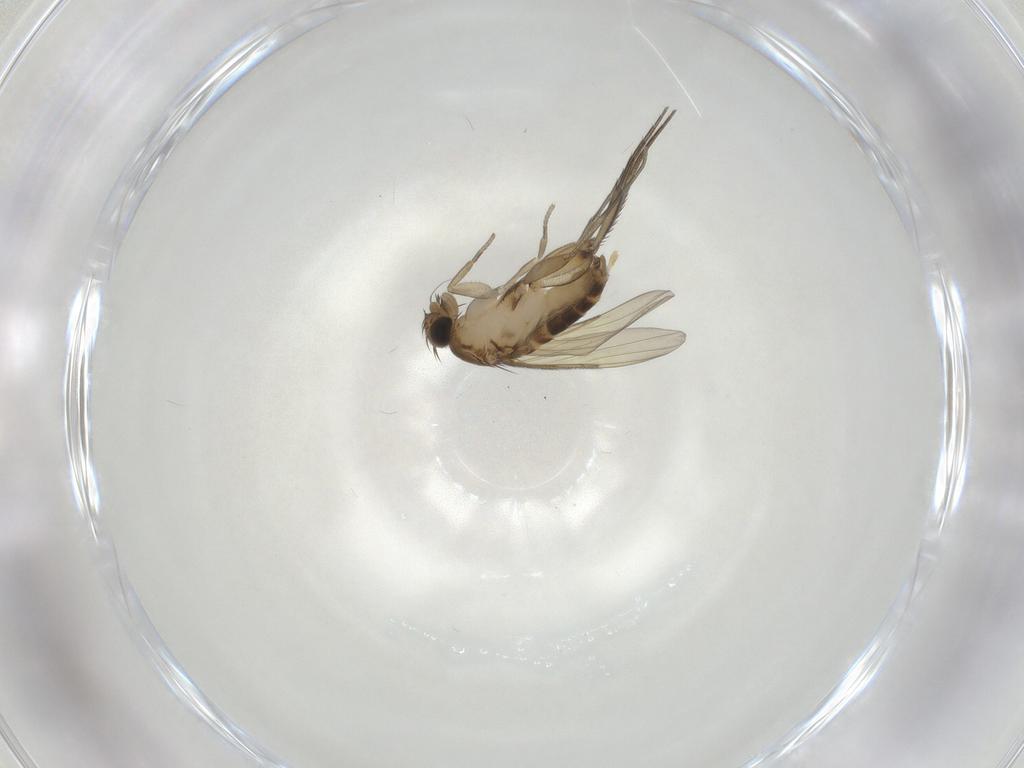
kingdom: Animalia
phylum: Arthropoda
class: Insecta
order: Diptera
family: Phoridae
